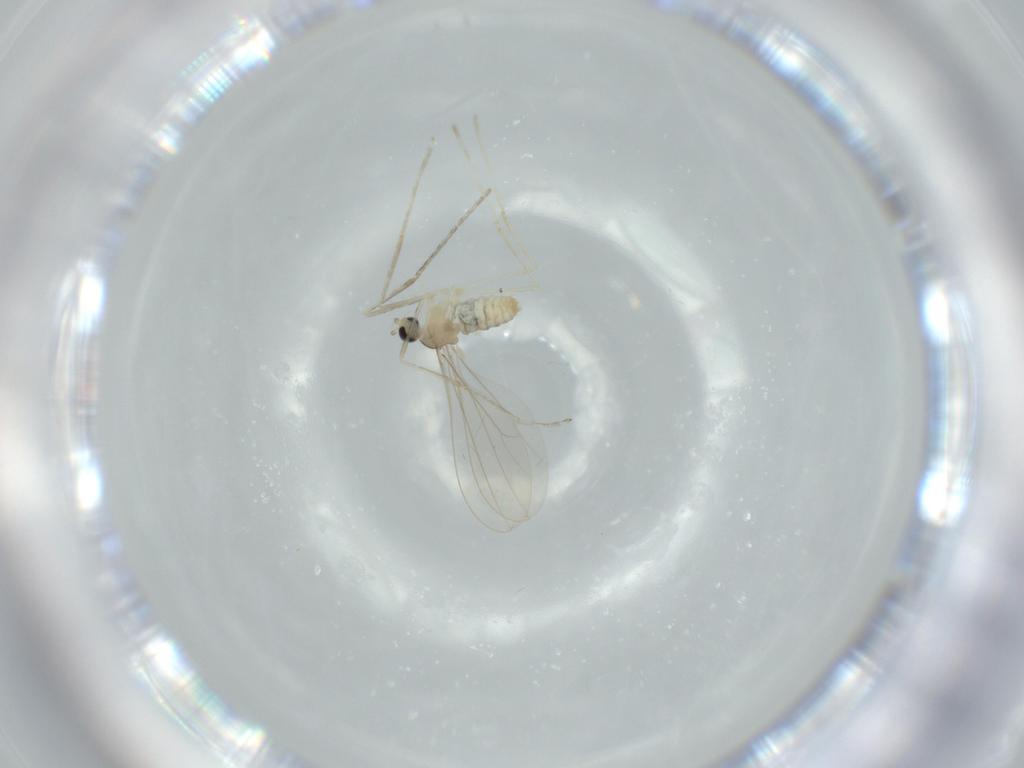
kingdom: Animalia
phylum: Arthropoda
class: Insecta
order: Diptera
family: Cecidomyiidae
